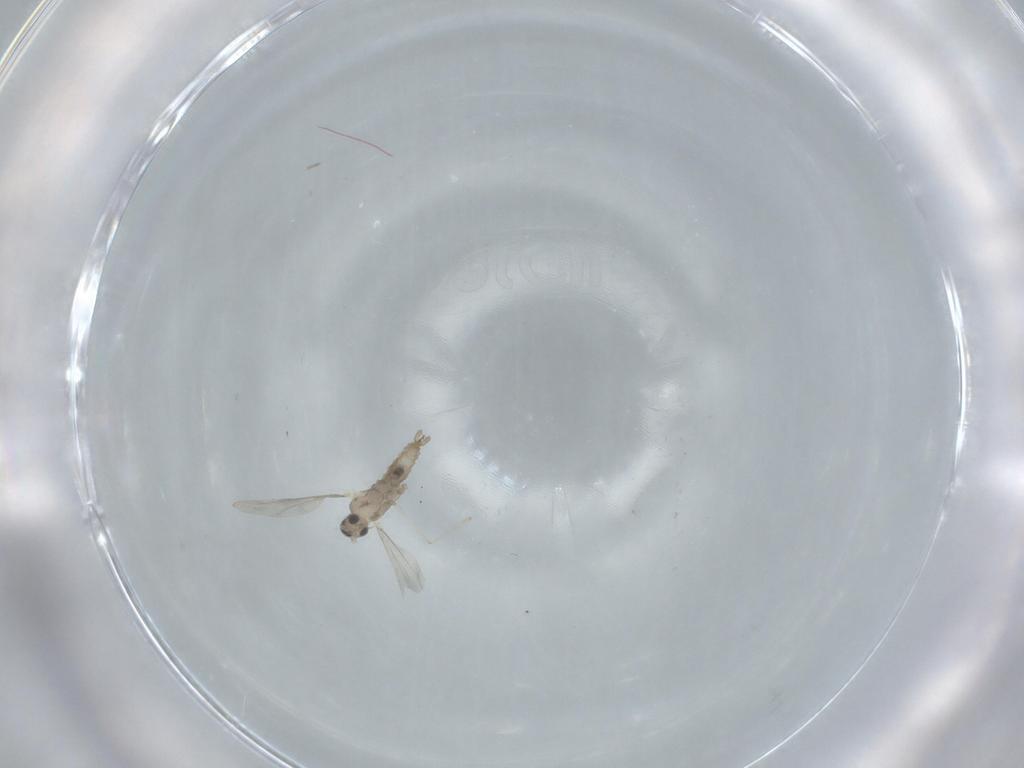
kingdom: Animalia
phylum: Arthropoda
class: Insecta
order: Diptera
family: Cecidomyiidae
